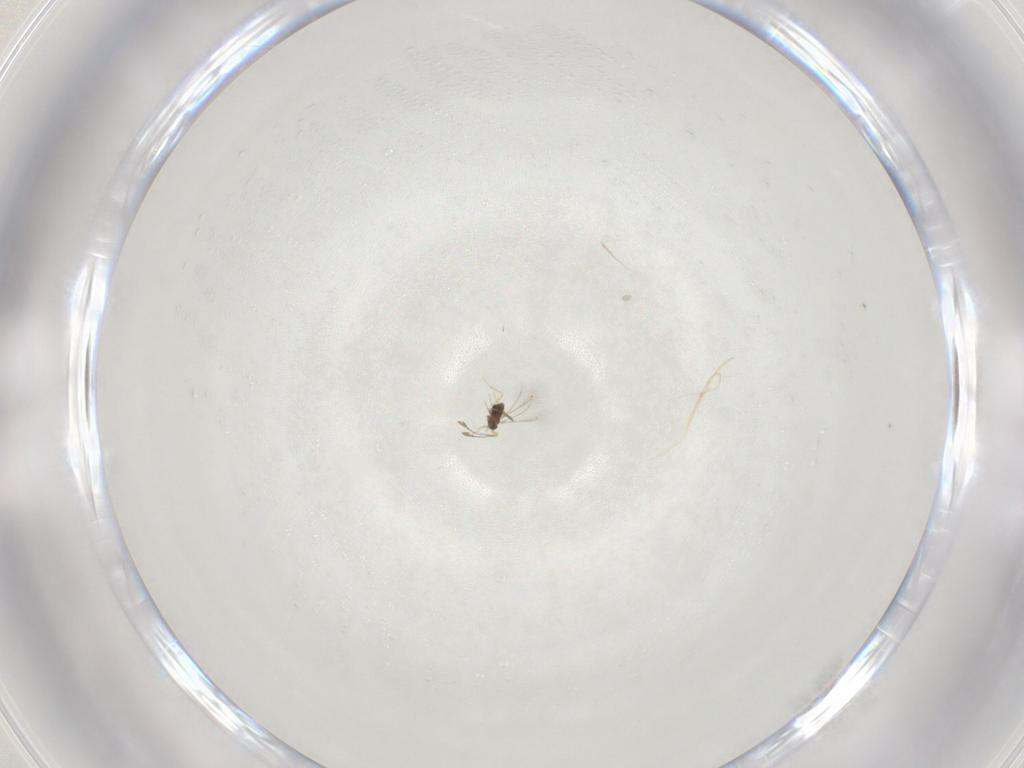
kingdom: Animalia
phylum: Arthropoda
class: Insecta
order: Hymenoptera
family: Mymaridae
